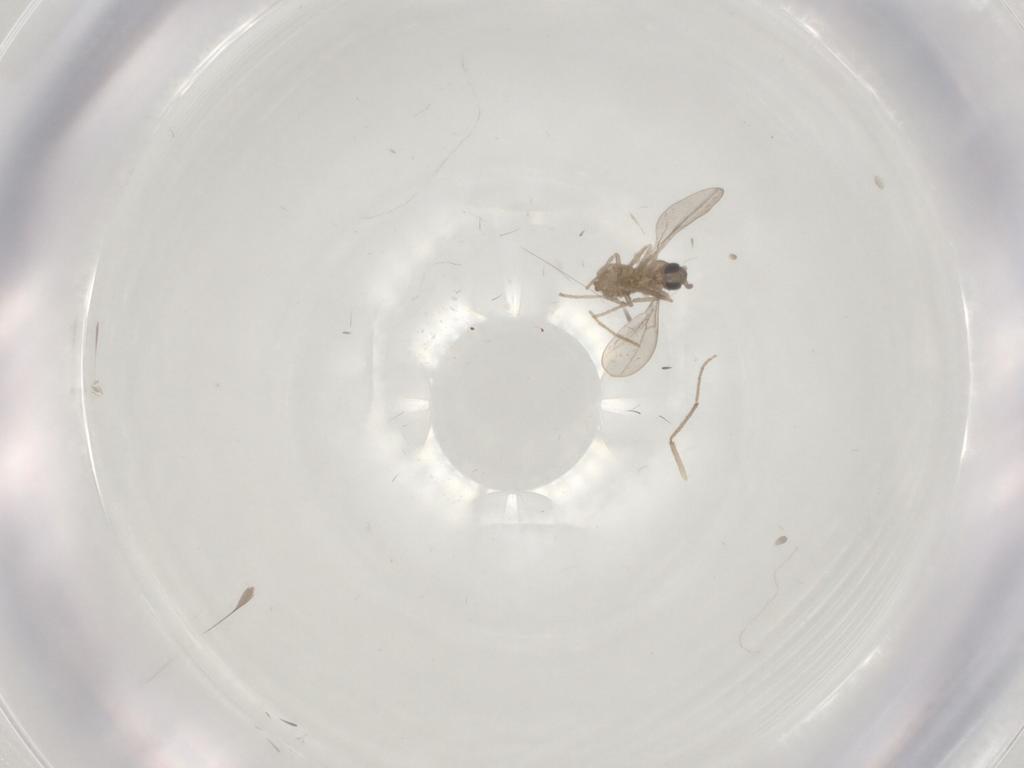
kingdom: Animalia
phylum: Arthropoda
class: Insecta
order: Diptera
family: Cecidomyiidae
